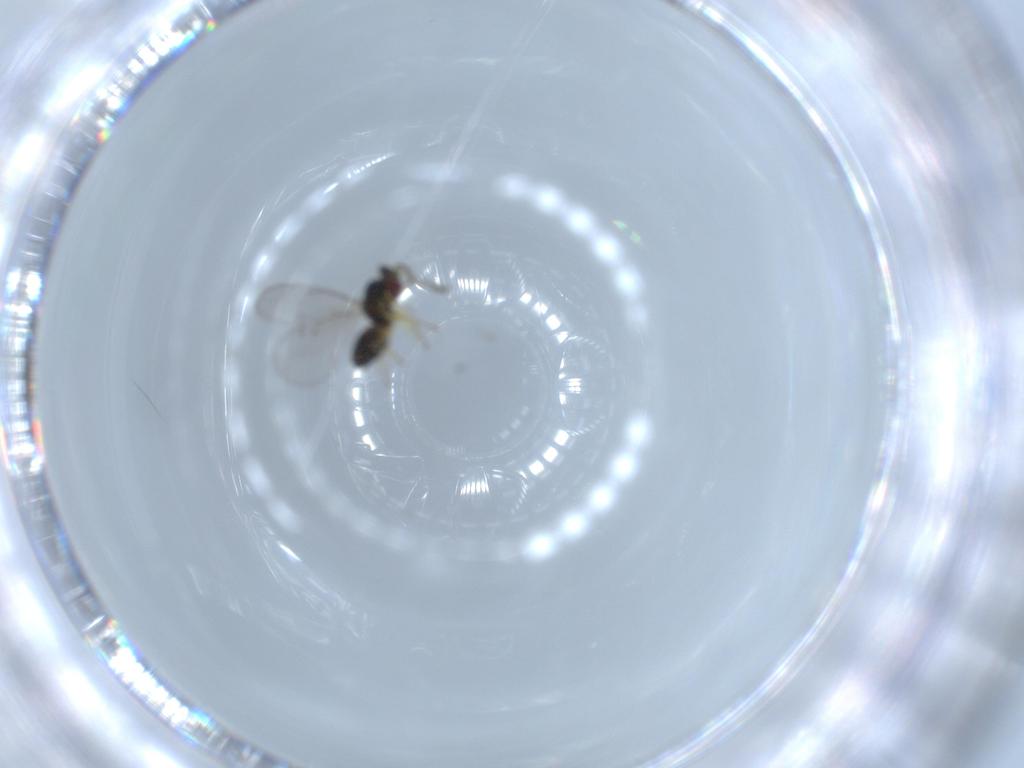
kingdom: Animalia
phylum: Arthropoda
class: Insecta
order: Hymenoptera
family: Eulophidae
